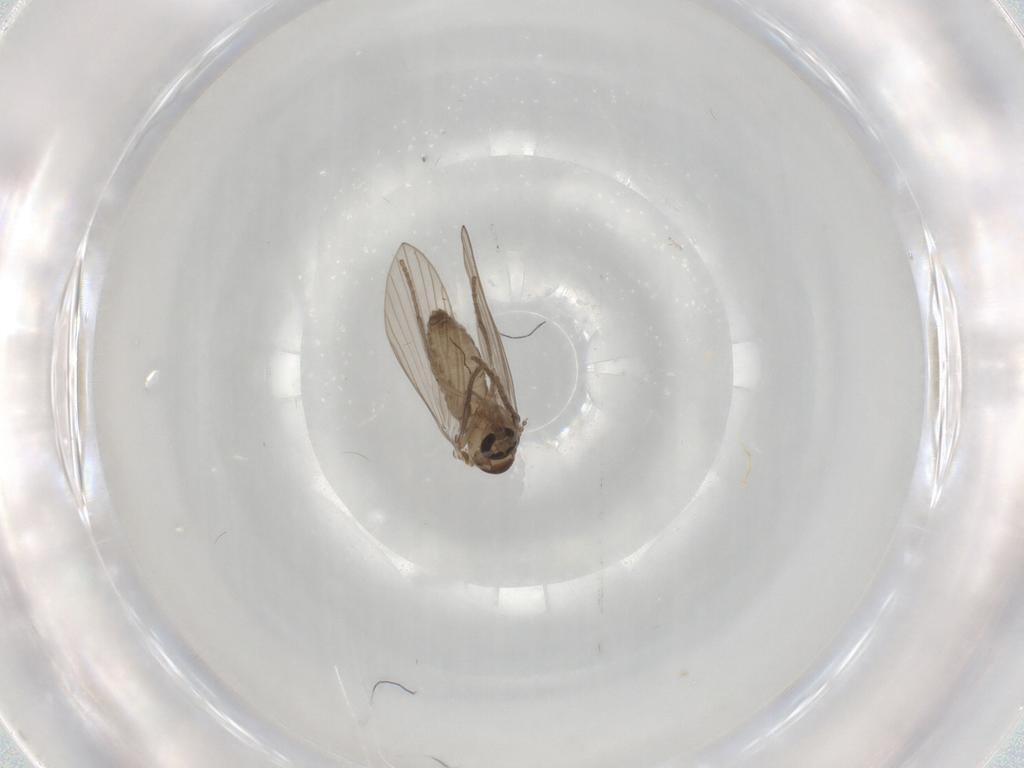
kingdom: Animalia
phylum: Arthropoda
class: Insecta
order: Diptera
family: Psychodidae
